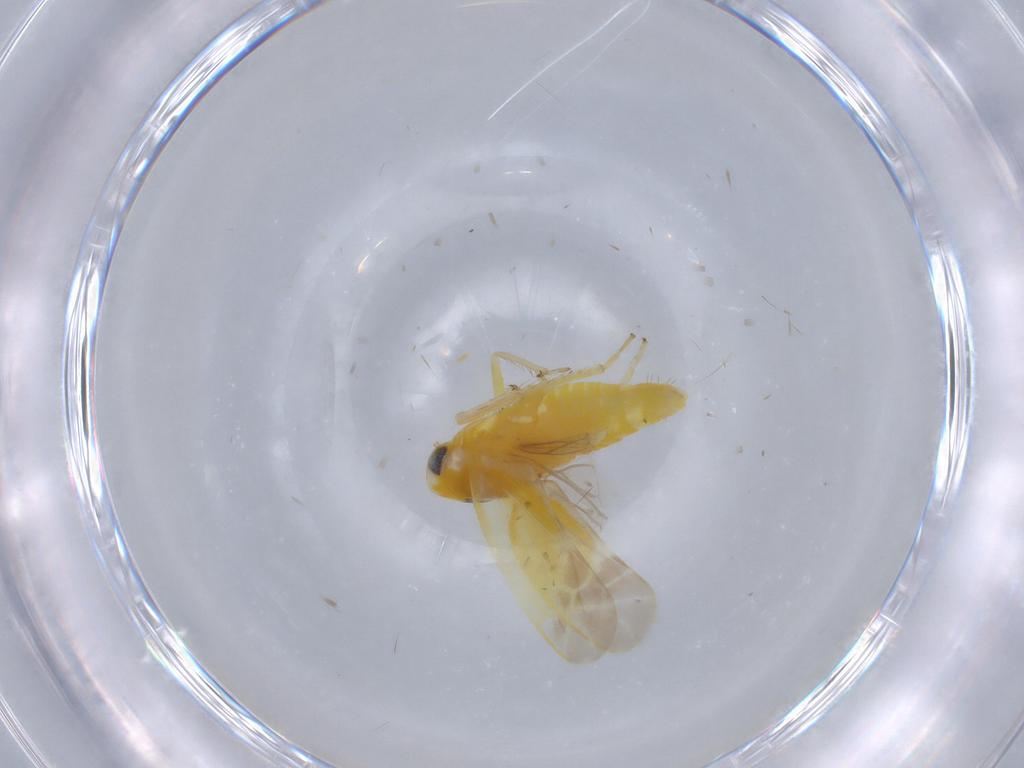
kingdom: Animalia
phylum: Arthropoda
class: Insecta
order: Hemiptera
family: Cicadellidae
